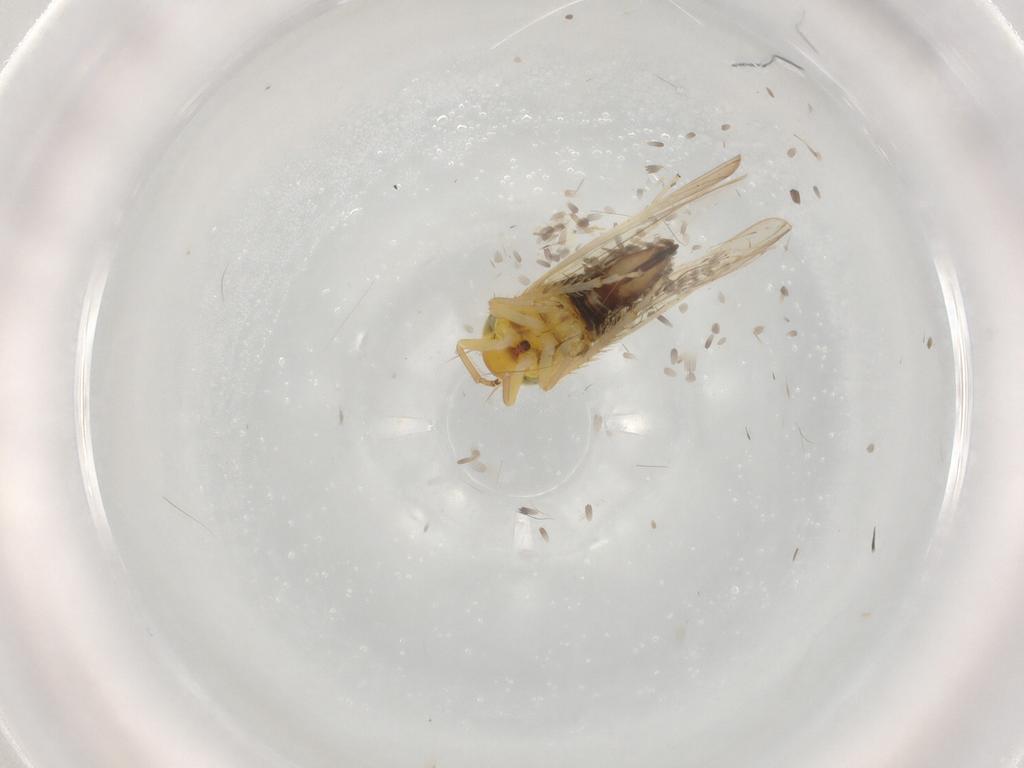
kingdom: Animalia
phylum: Arthropoda
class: Insecta
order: Hemiptera
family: Cicadellidae
